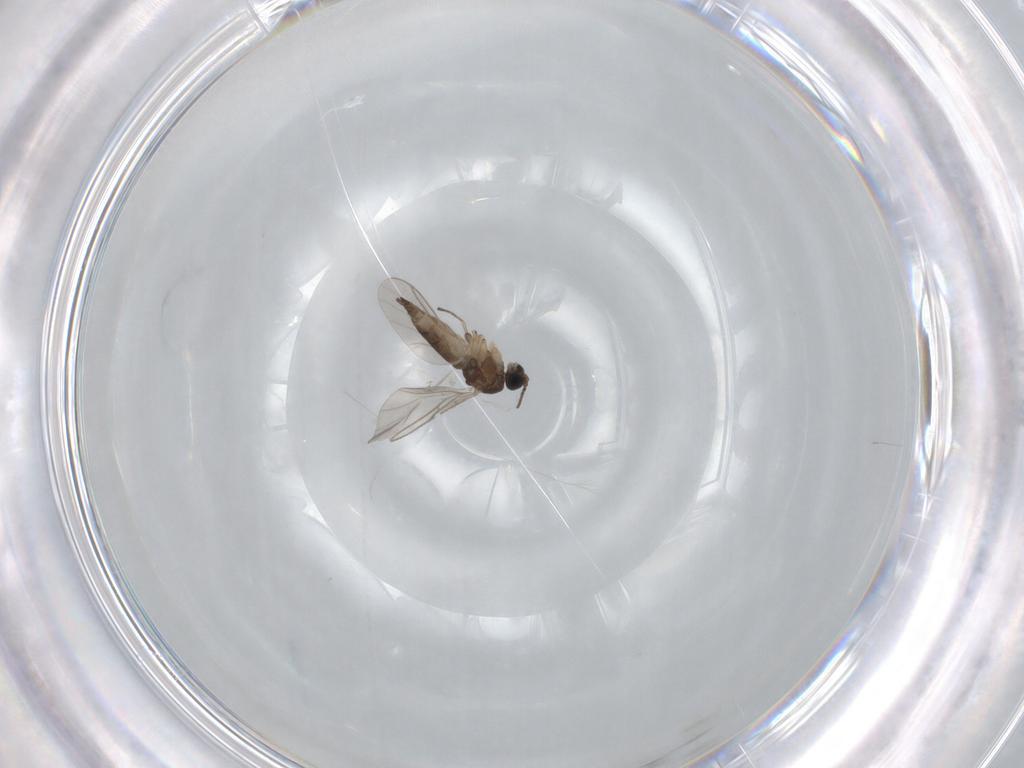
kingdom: Animalia
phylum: Arthropoda
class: Insecta
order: Diptera
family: Sciaridae
